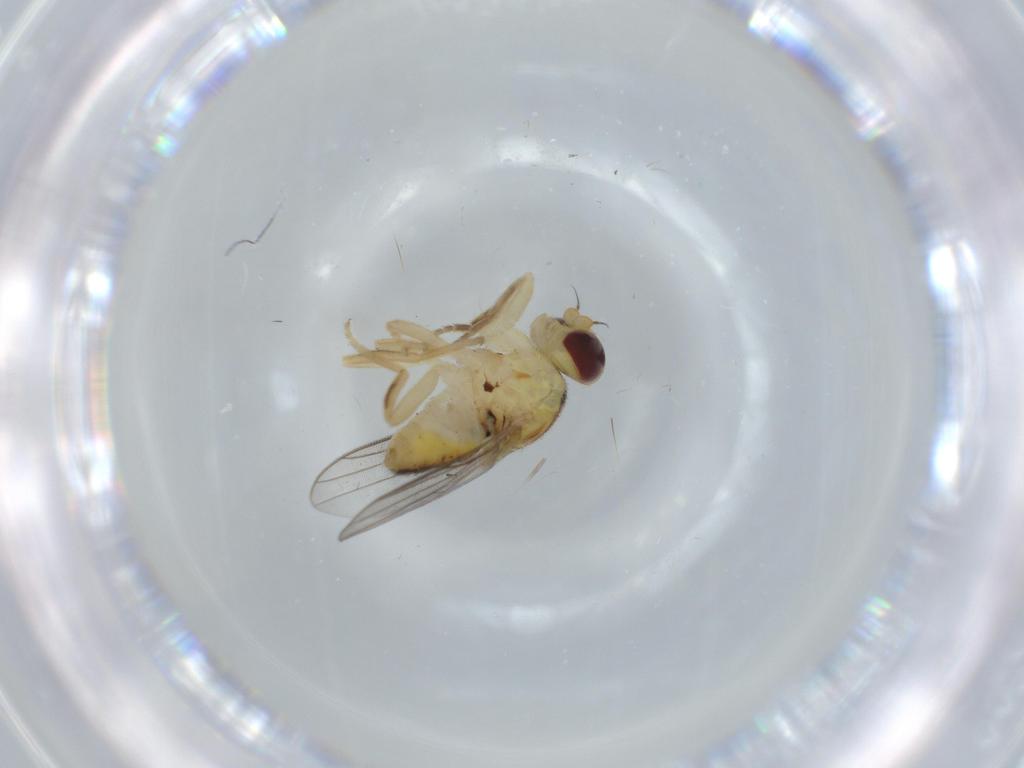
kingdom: Animalia
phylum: Arthropoda
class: Insecta
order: Diptera
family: Chloropidae
